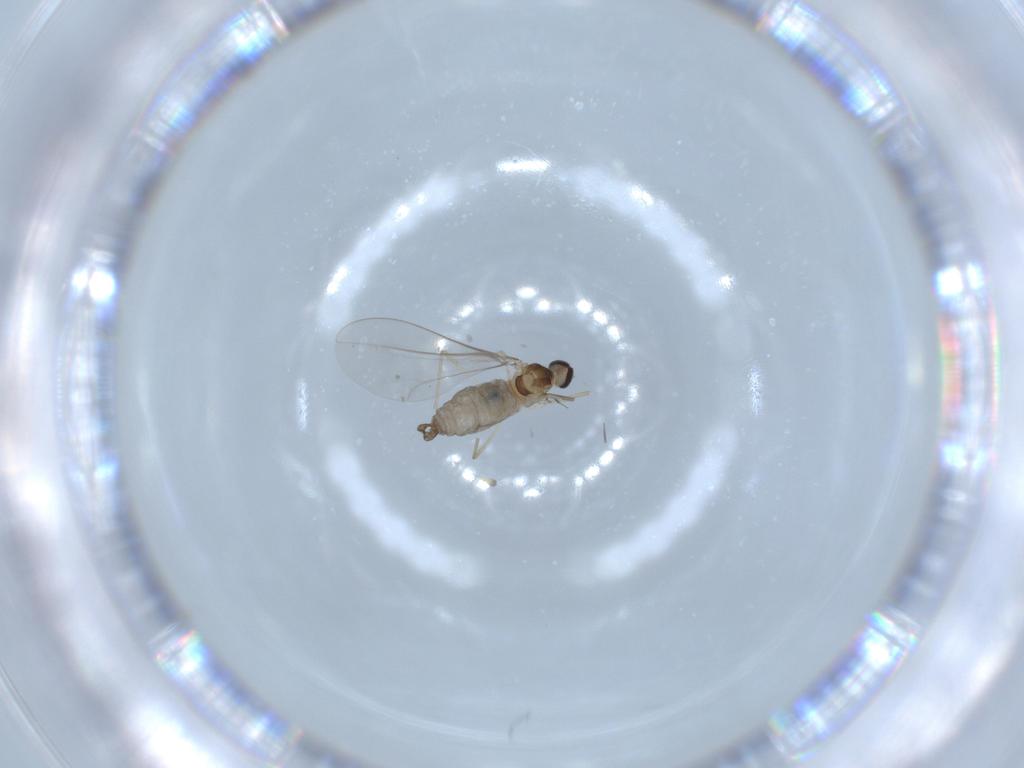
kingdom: Animalia
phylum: Arthropoda
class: Insecta
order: Diptera
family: Cecidomyiidae
